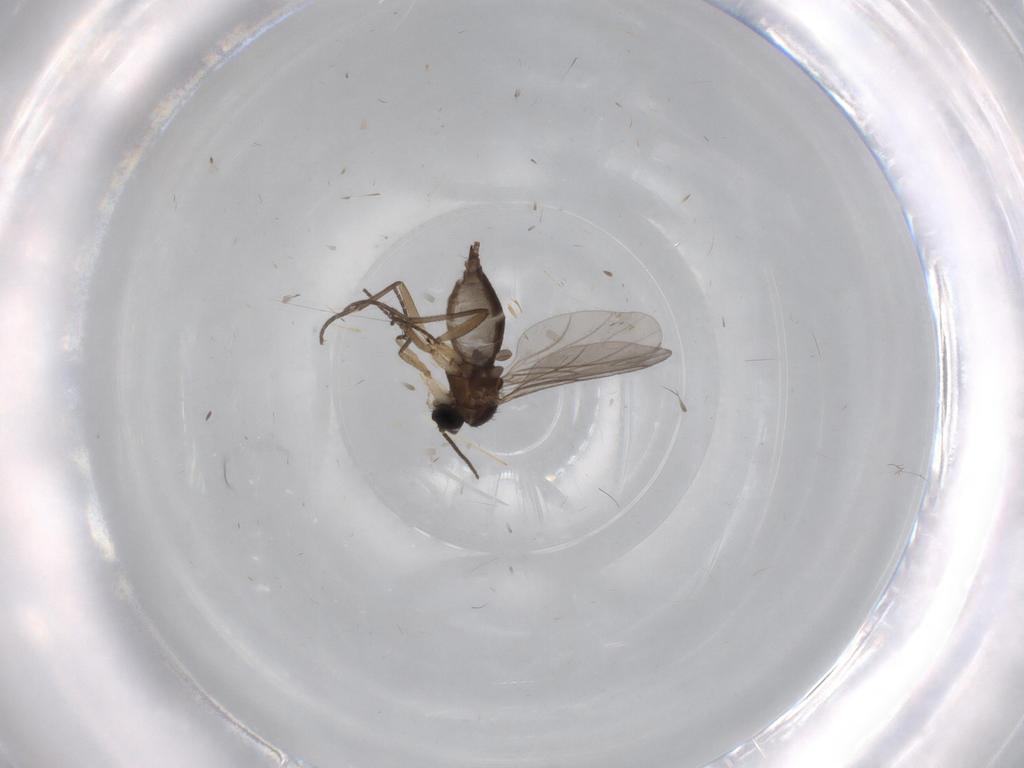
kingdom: Animalia
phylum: Arthropoda
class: Insecta
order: Diptera
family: Sciaridae
